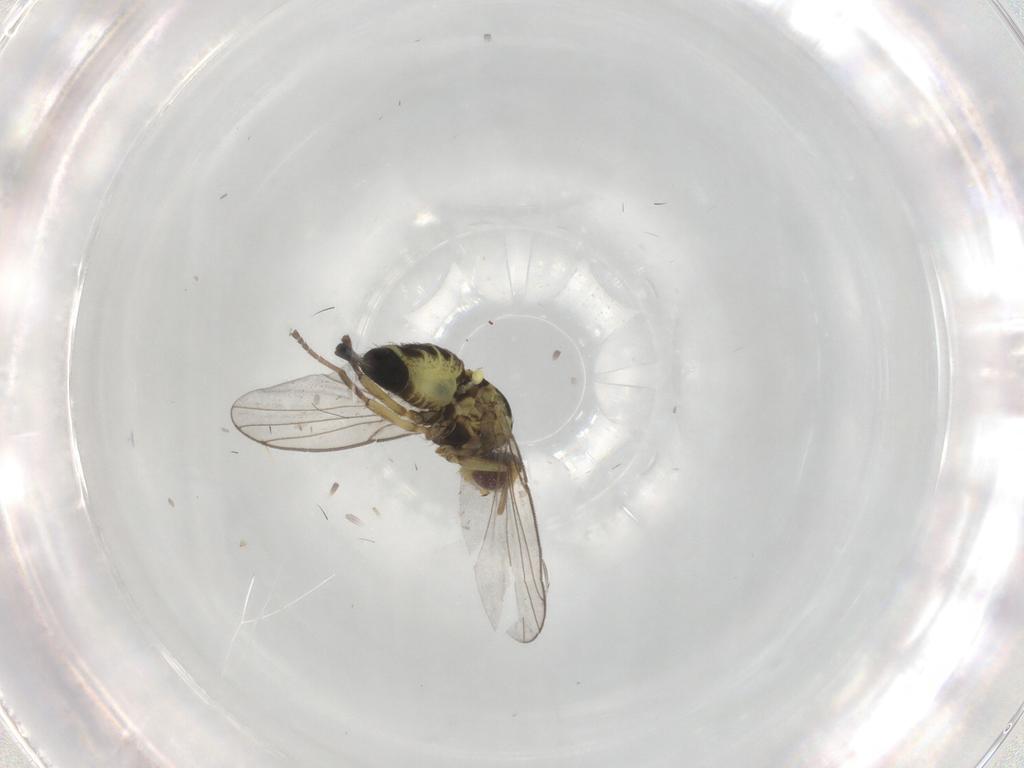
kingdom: Animalia
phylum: Arthropoda
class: Insecta
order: Diptera
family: Agromyzidae
